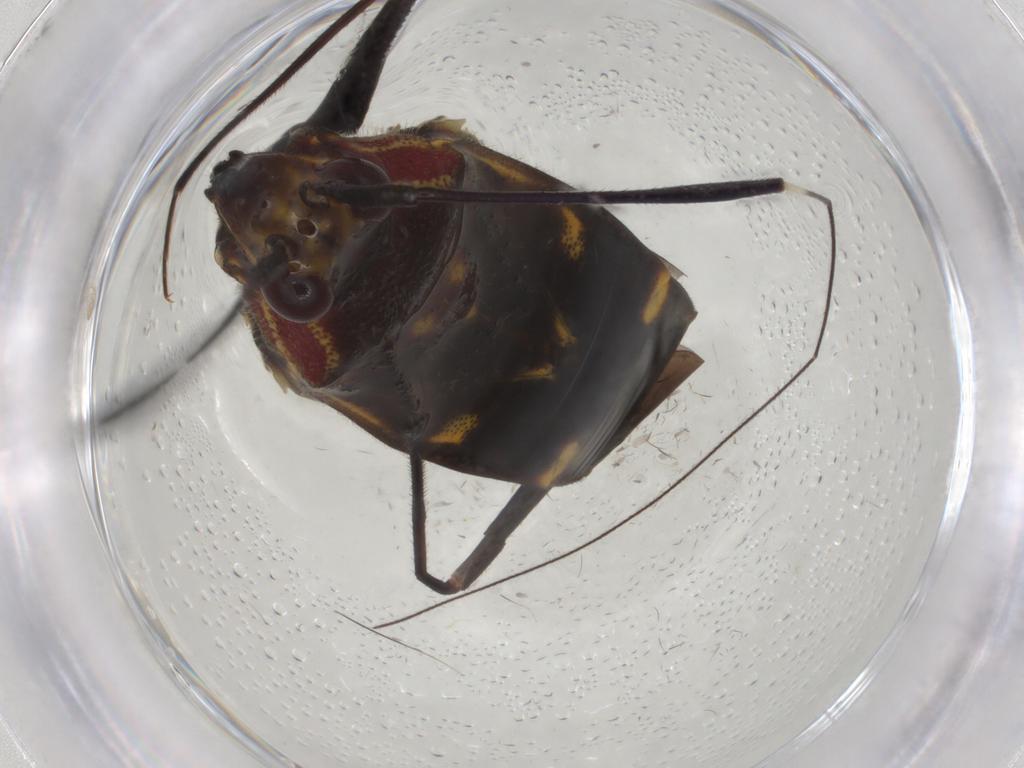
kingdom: Animalia
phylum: Arthropoda
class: Insecta
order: Hemiptera
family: Miridae
